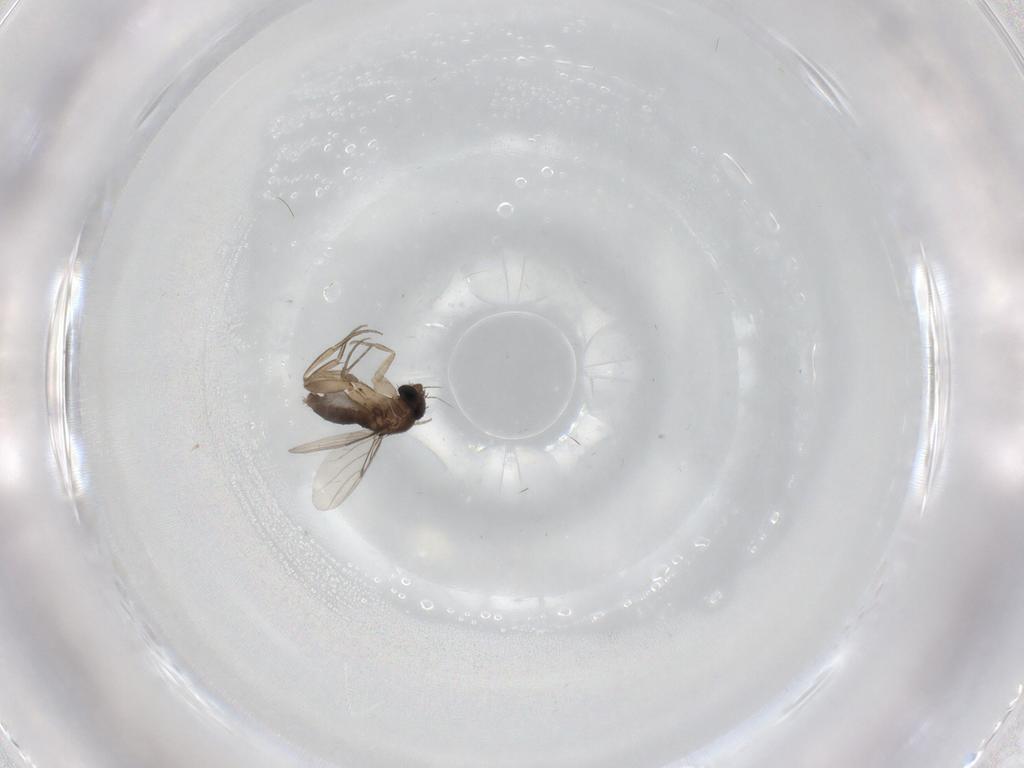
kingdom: Animalia
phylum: Arthropoda
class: Insecta
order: Diptera
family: Phoridae
